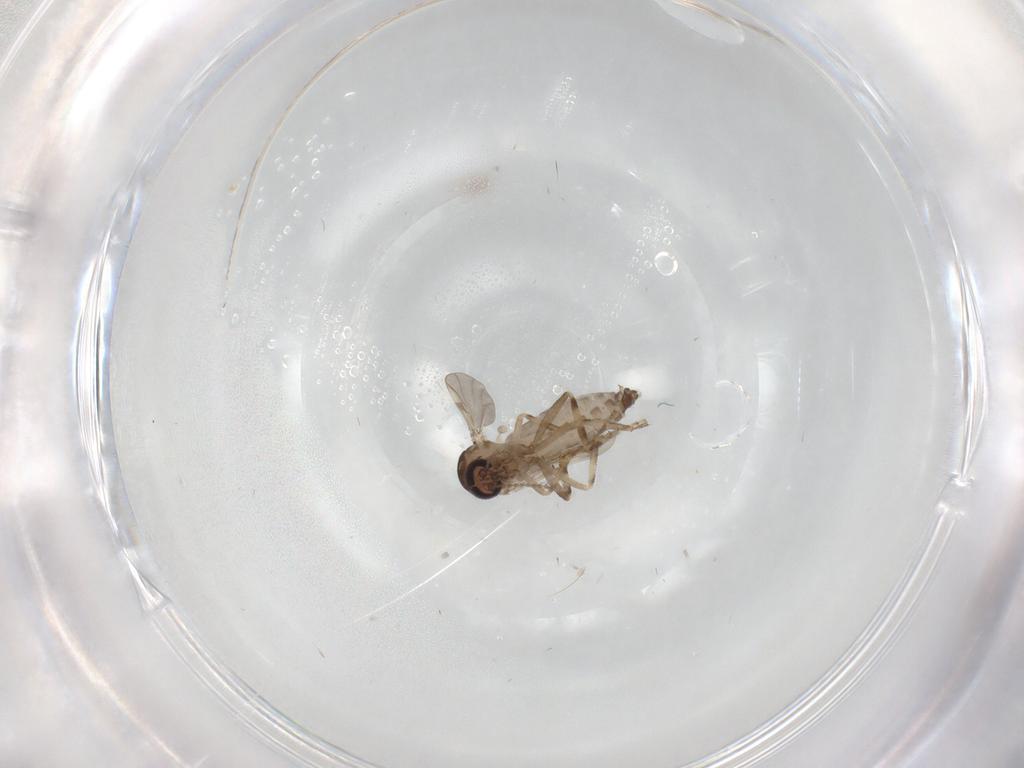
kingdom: Animalia
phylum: Arthropoda
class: Insecta
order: Diptera
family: Ceratopogonidae
